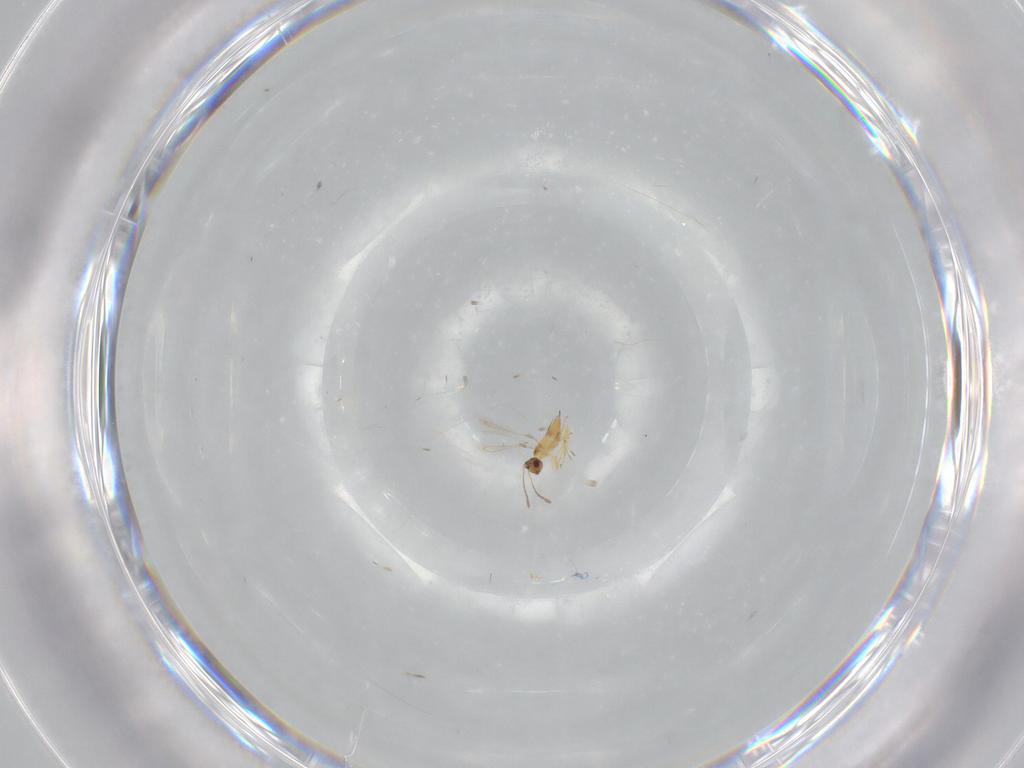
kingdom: Animalia
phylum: Arthropoda
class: Insecta
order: Hymenoptera
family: Mymaridae
